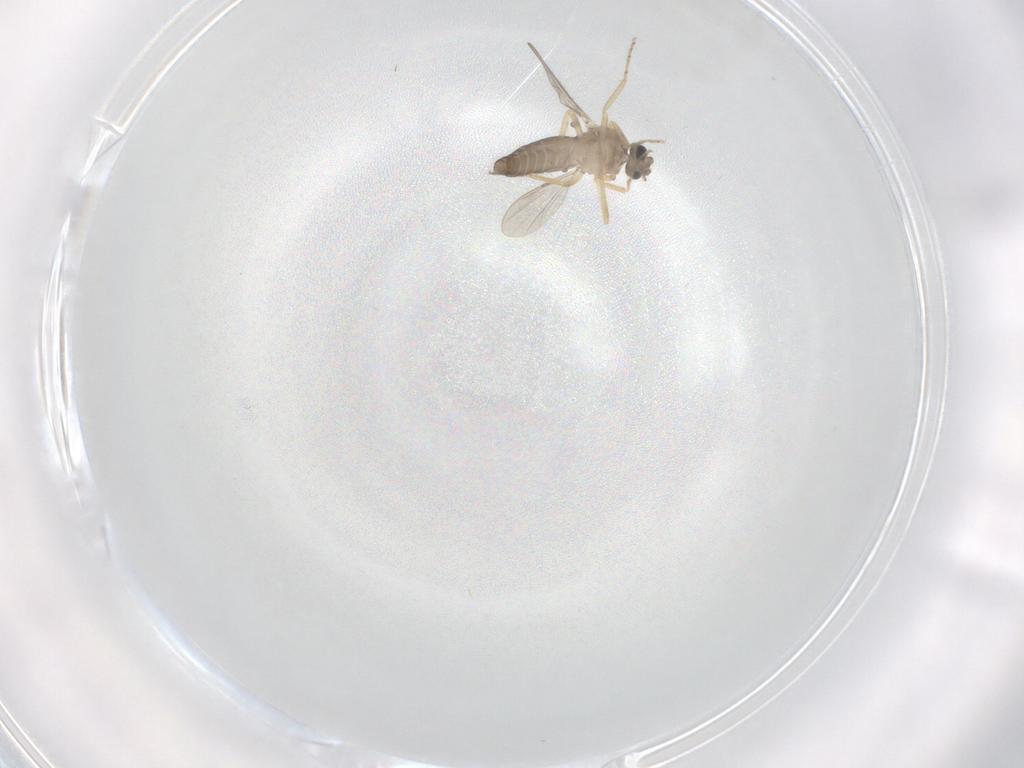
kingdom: Animalia
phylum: Arthropoda
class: Insecta
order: Diptera
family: Ceratopogonidae
